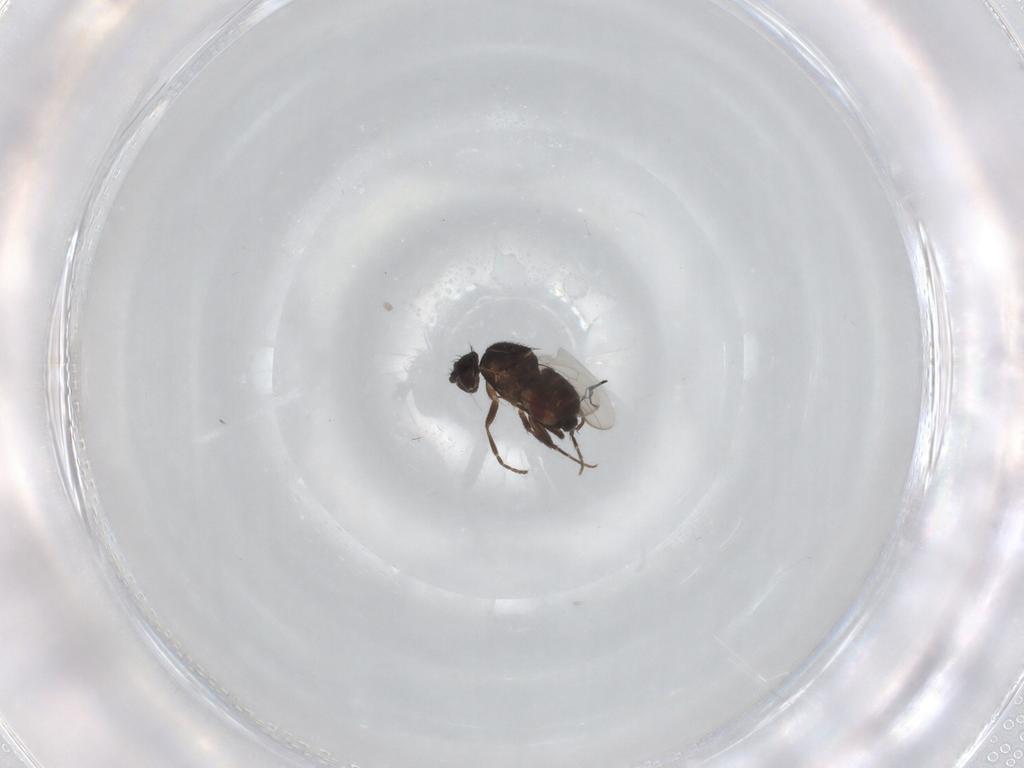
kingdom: Animalia
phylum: Arthropoda
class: Insecta
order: Diptera
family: Sphaeroceridae
